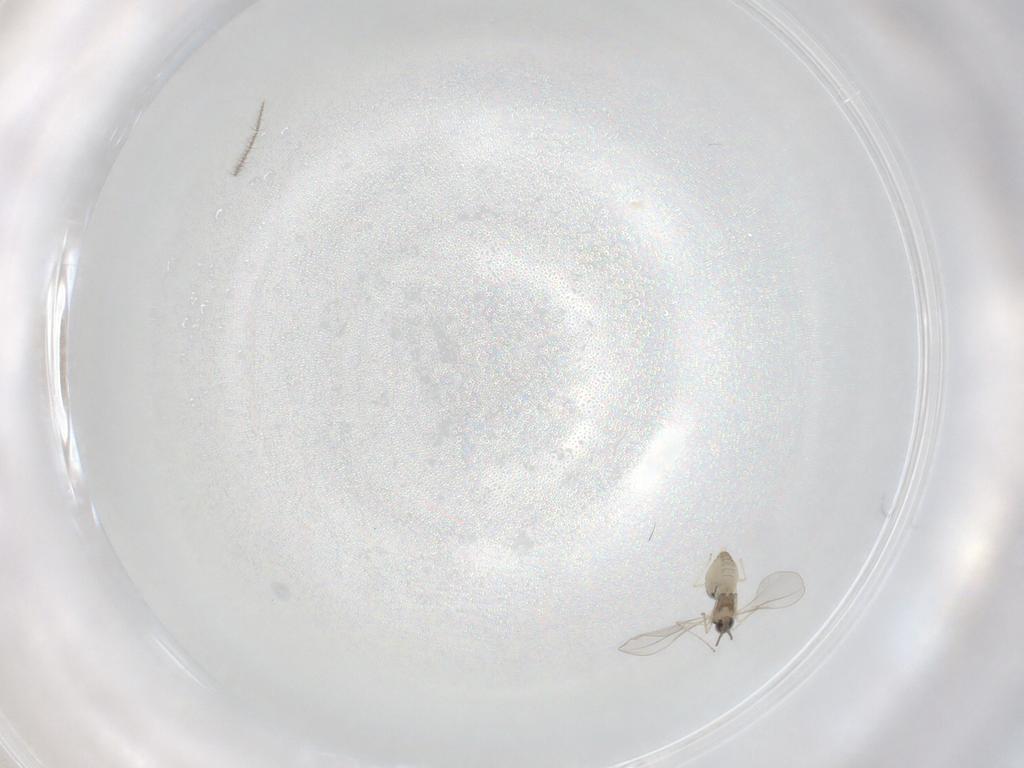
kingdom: Animalia
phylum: Arthropoda
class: Insecta
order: Diptera
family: Cecidomyiidae
